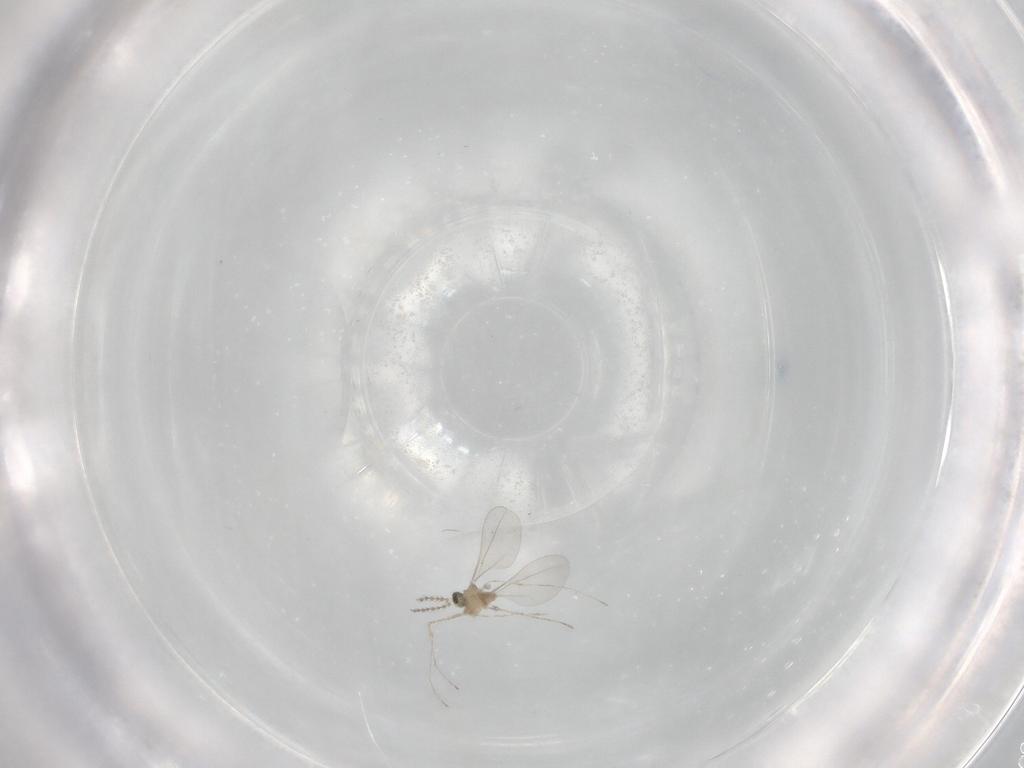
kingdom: Animalia
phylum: Arthropoda
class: Insecta
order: Diptera
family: Cecidomyiidae
